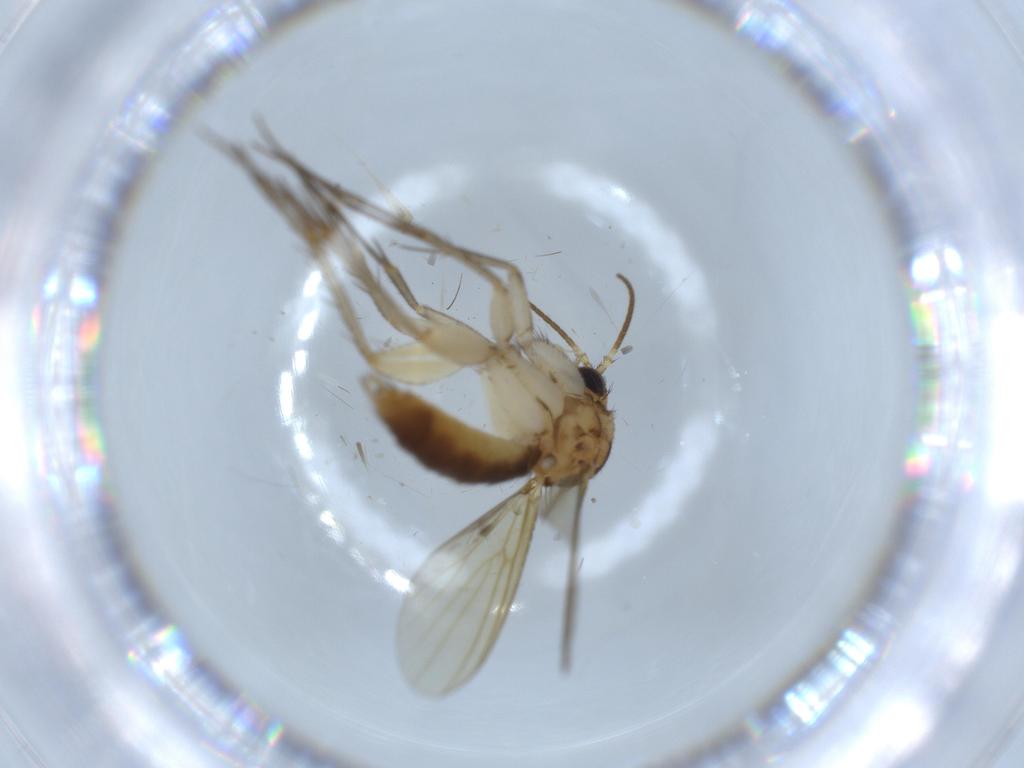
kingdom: Animalia
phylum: Arthropoda
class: Insecta
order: Diptera
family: Mycetophilidae
